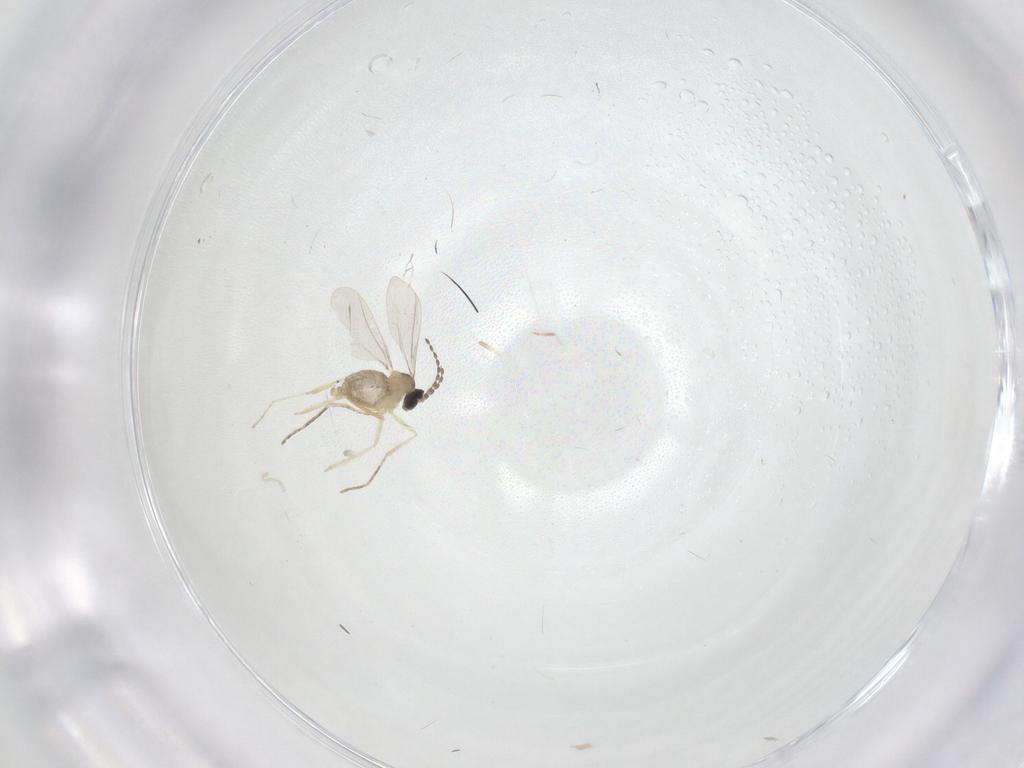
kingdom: Animalia
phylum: Arthropoda
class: Insecta
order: Diptera
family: Cecidomyiidae
